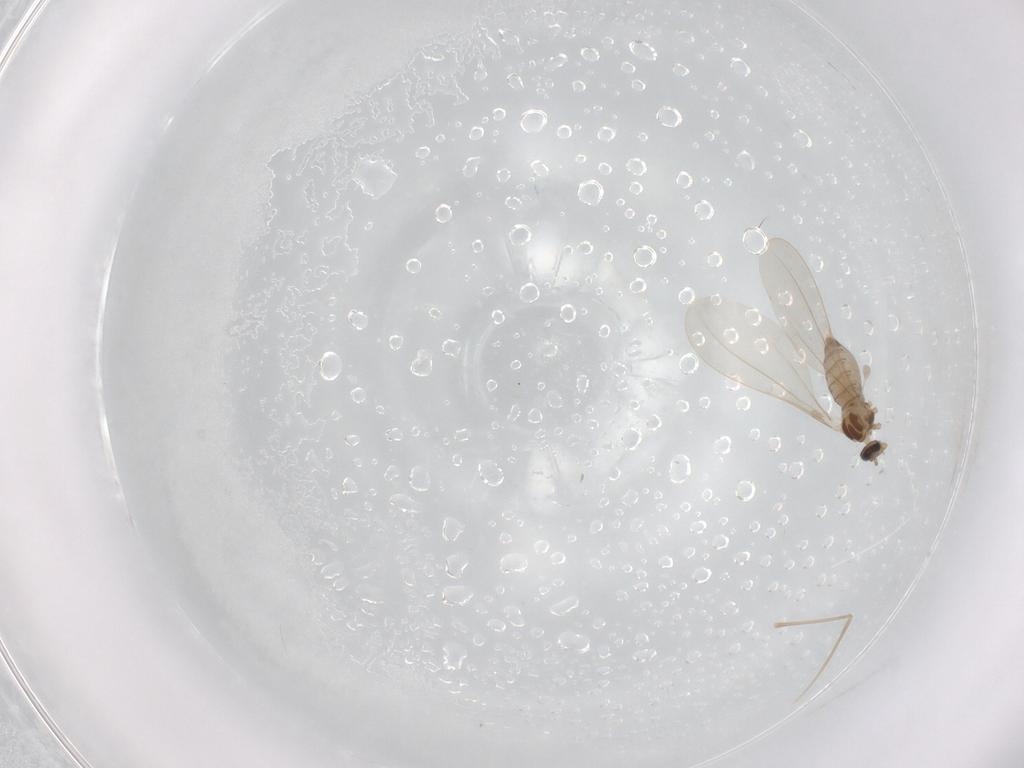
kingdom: Animalia
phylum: Arthropoda
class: Insecta
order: Diptera
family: Cecidomyiidae
